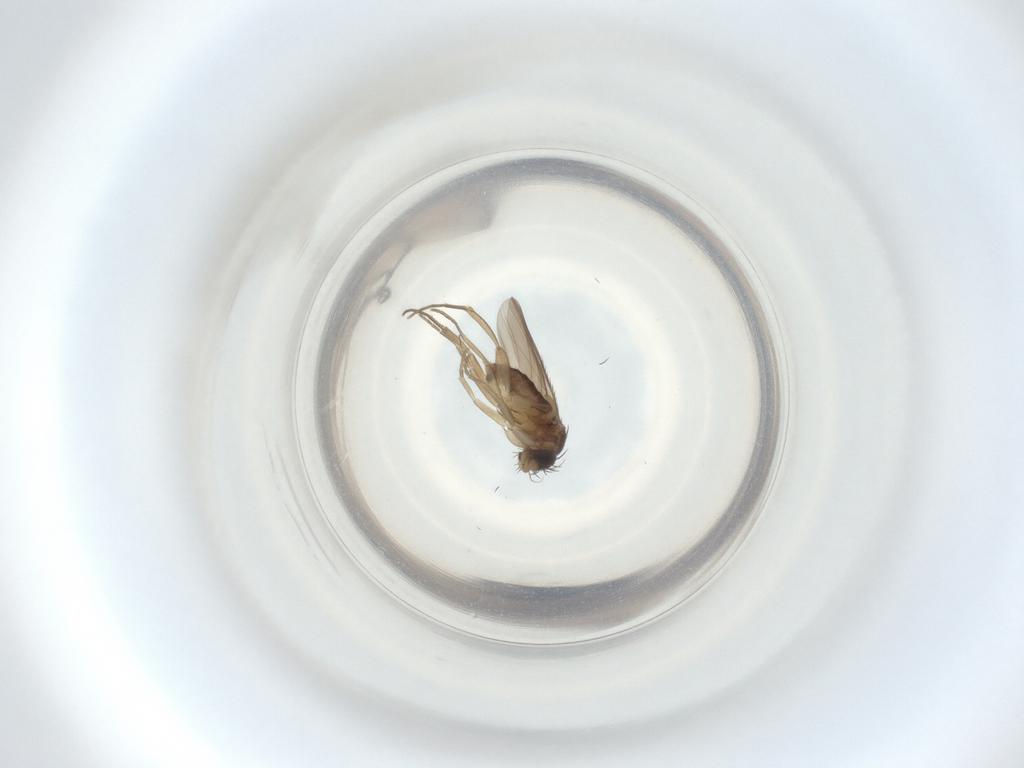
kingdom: Animalia
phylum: Arthropoda
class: Insecta
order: Diptera
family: Phoridae
